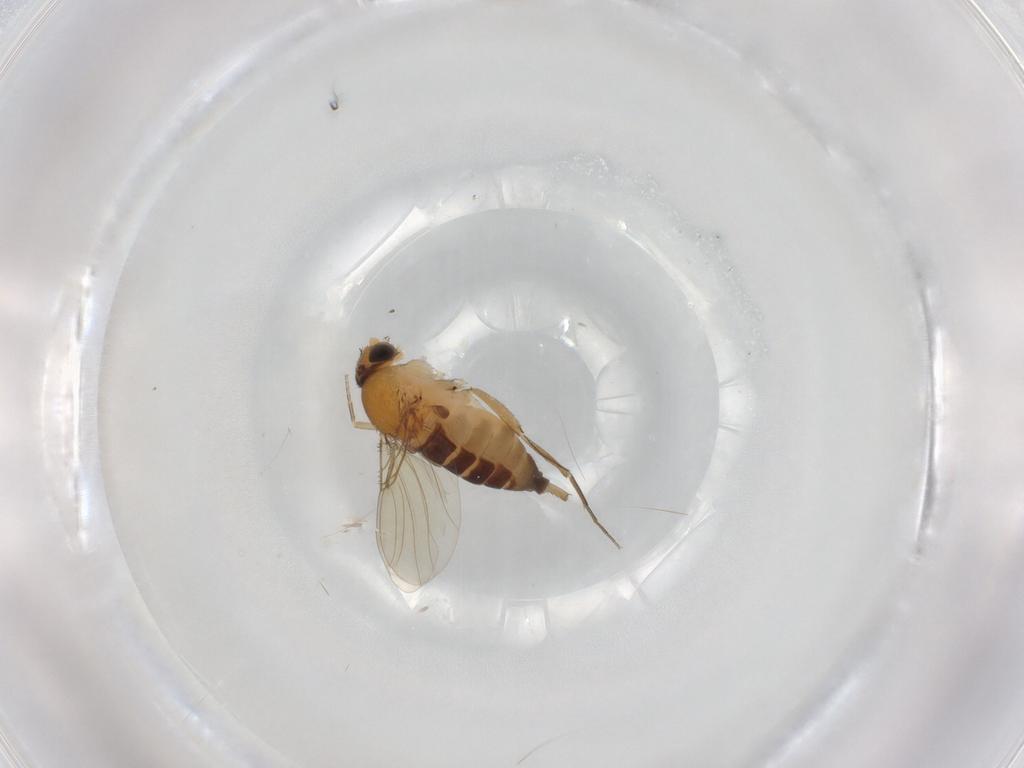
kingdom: Animalia
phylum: Arthropoda
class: Insecta
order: Diptera
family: Phoridae
